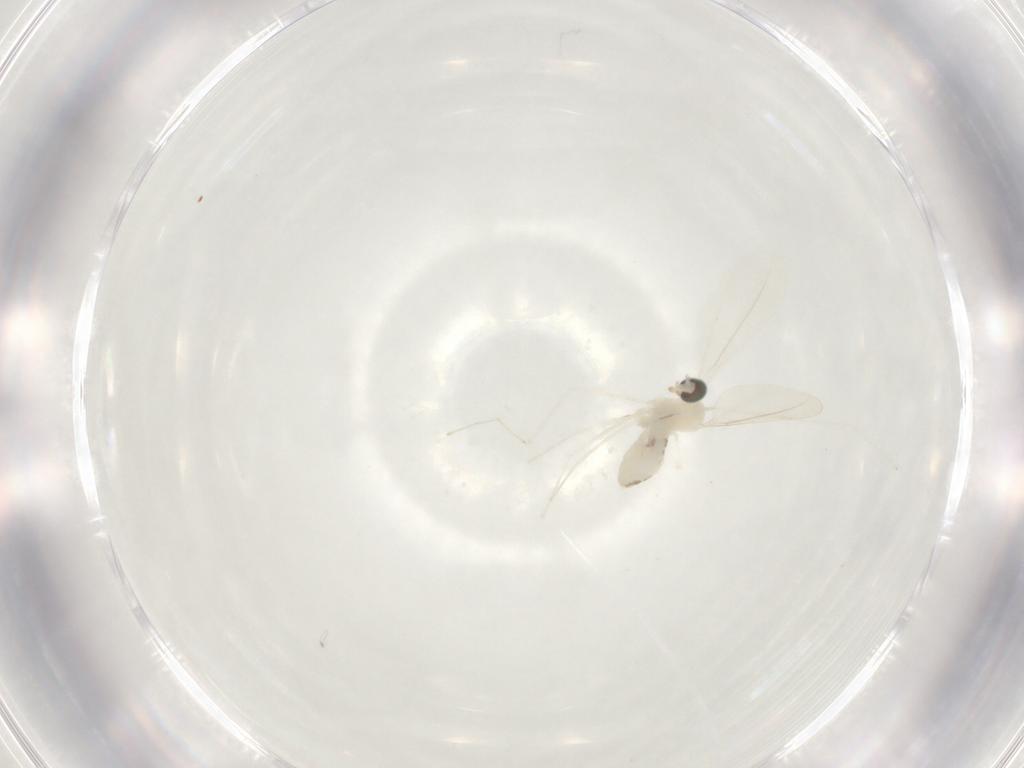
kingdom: Animalia
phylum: Arthropoda
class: Insecta
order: Diptera
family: Cecidomyiidae
